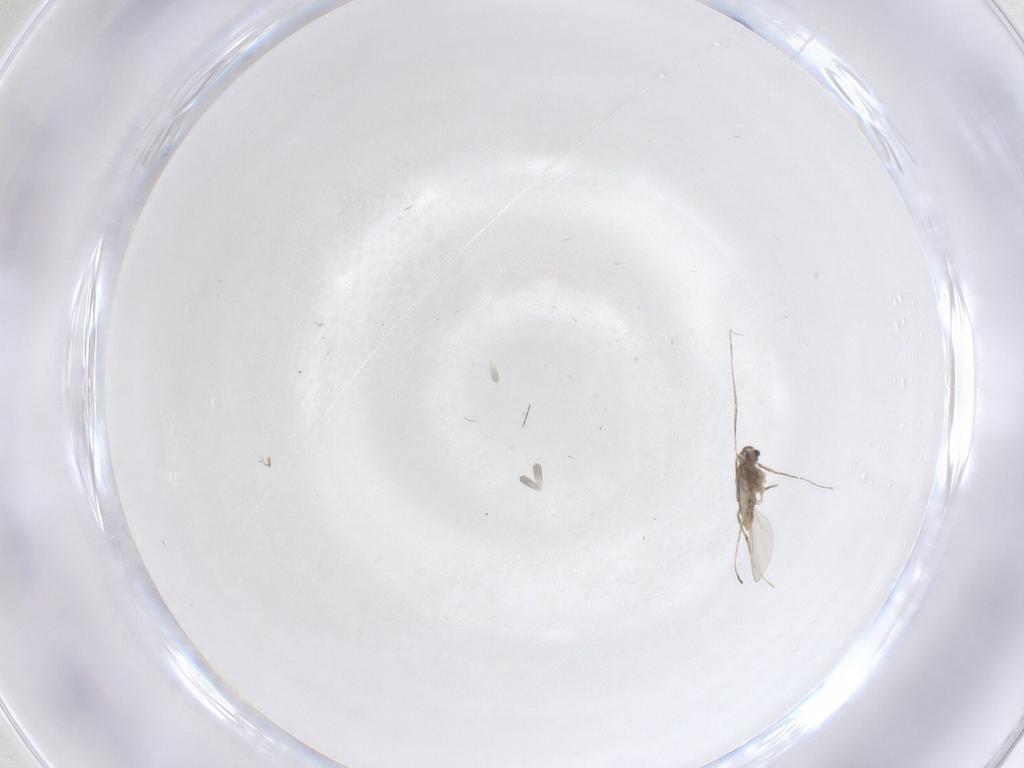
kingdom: Animalia
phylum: Arthropoda
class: Insecta
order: Diptera
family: Cecidomyiidae
